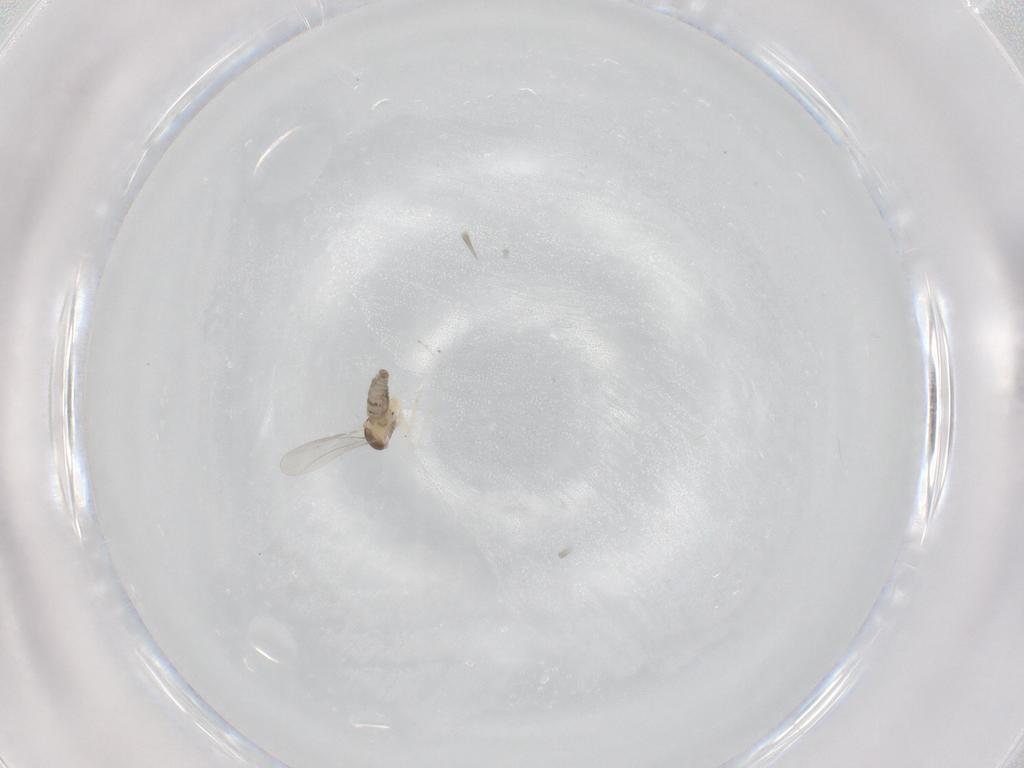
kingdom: Animalia
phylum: Arthropoda
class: Insecta
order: Diptera
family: Cecidomyiidae
